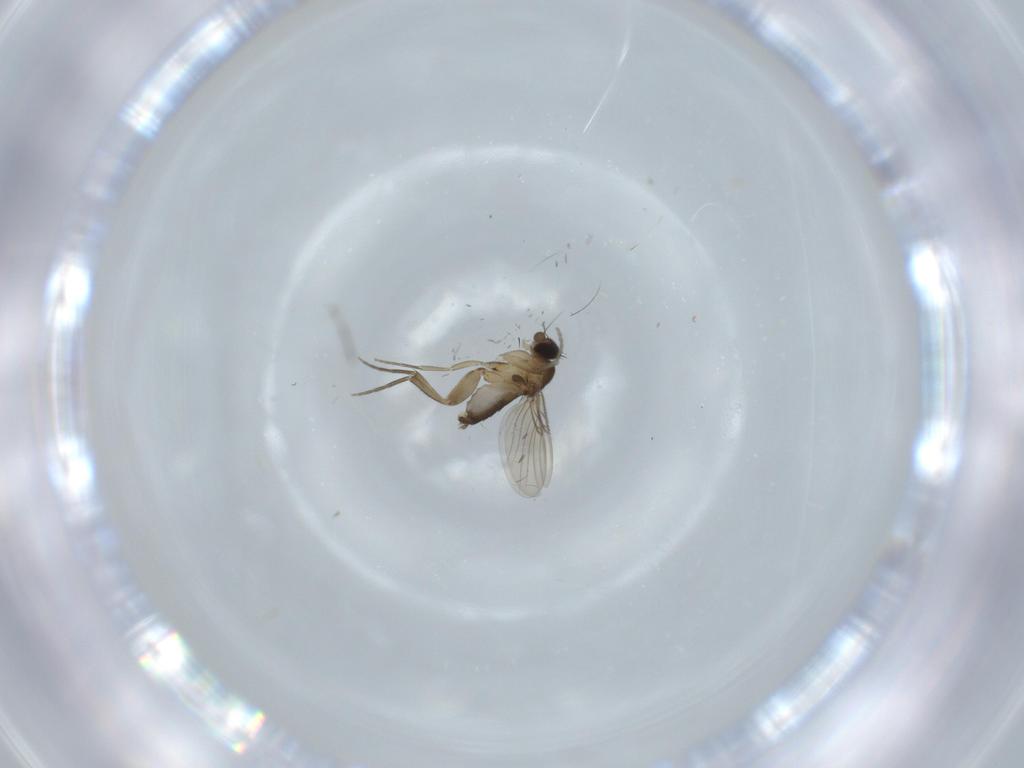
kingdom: Animalia
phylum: Arthropoda
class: Insecta
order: Diptera
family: Phoridae
